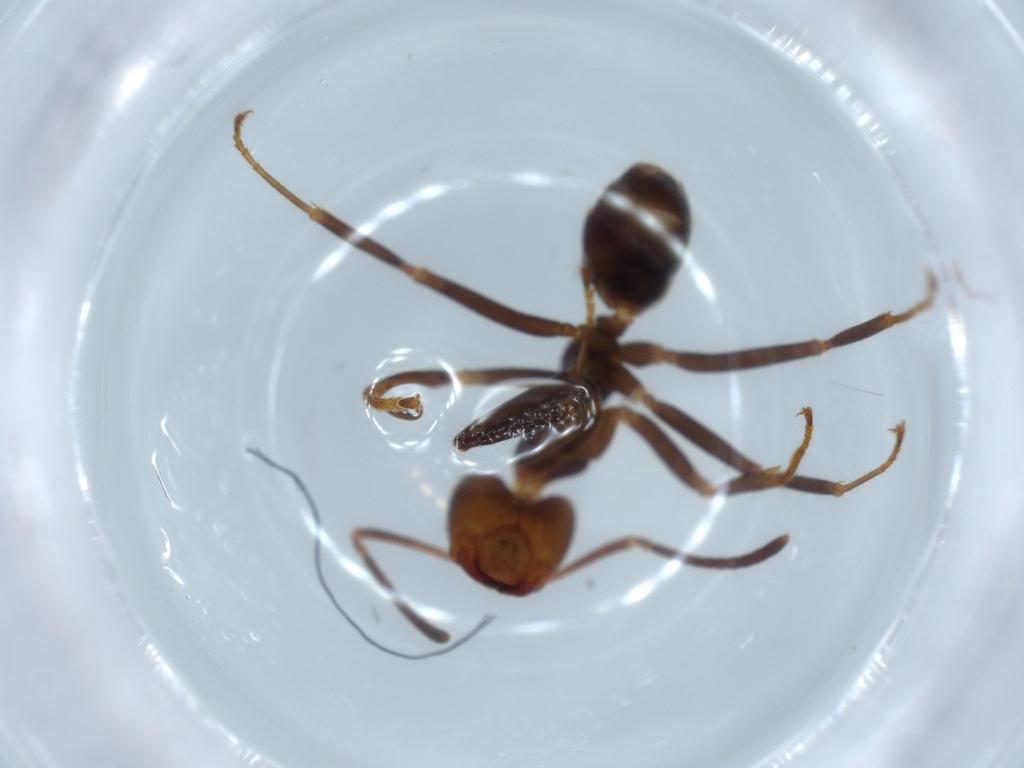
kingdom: Animalia
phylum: Arthropoda
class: Insecta
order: Hymenoptera
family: Formicidae
